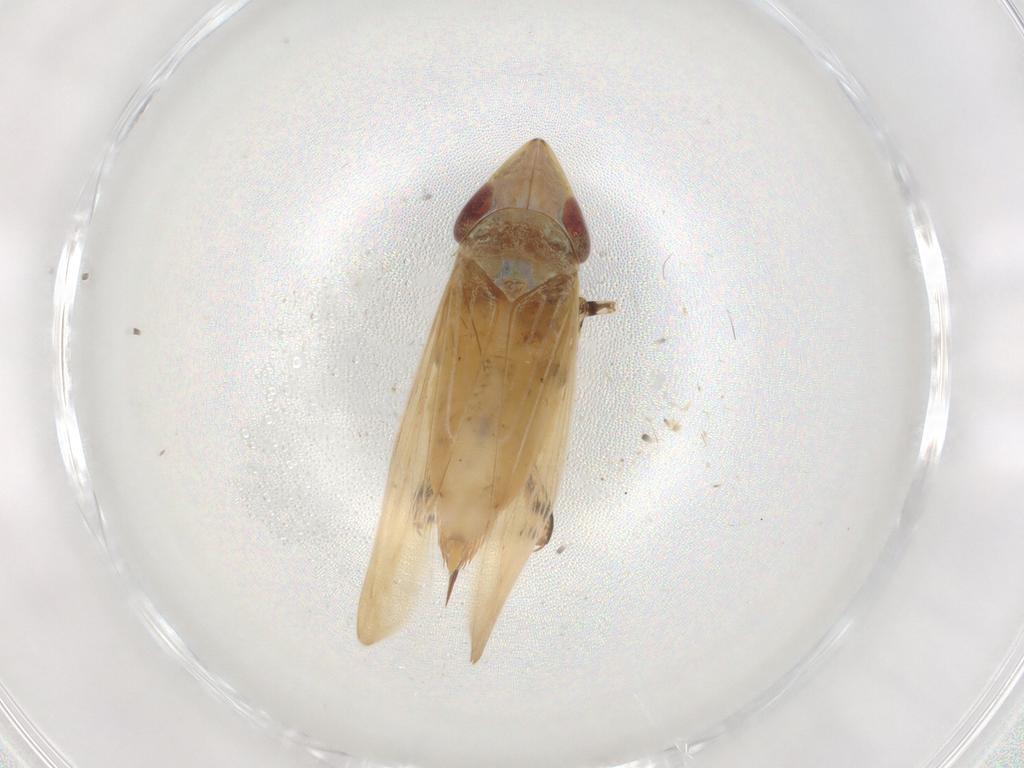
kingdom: Animalia
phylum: Arthropoda
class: Insecta
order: Hemiptera
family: Cicadellidae
